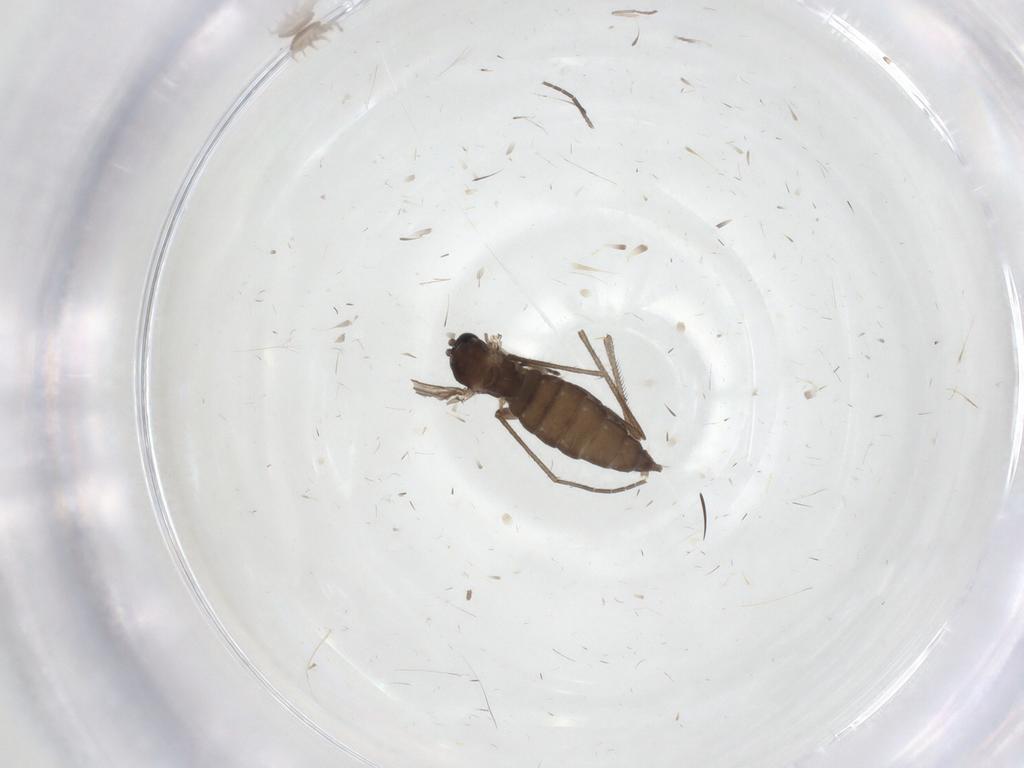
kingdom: Animalia
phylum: Arthropoda
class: Insecta
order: Diptera
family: Sciaridae
